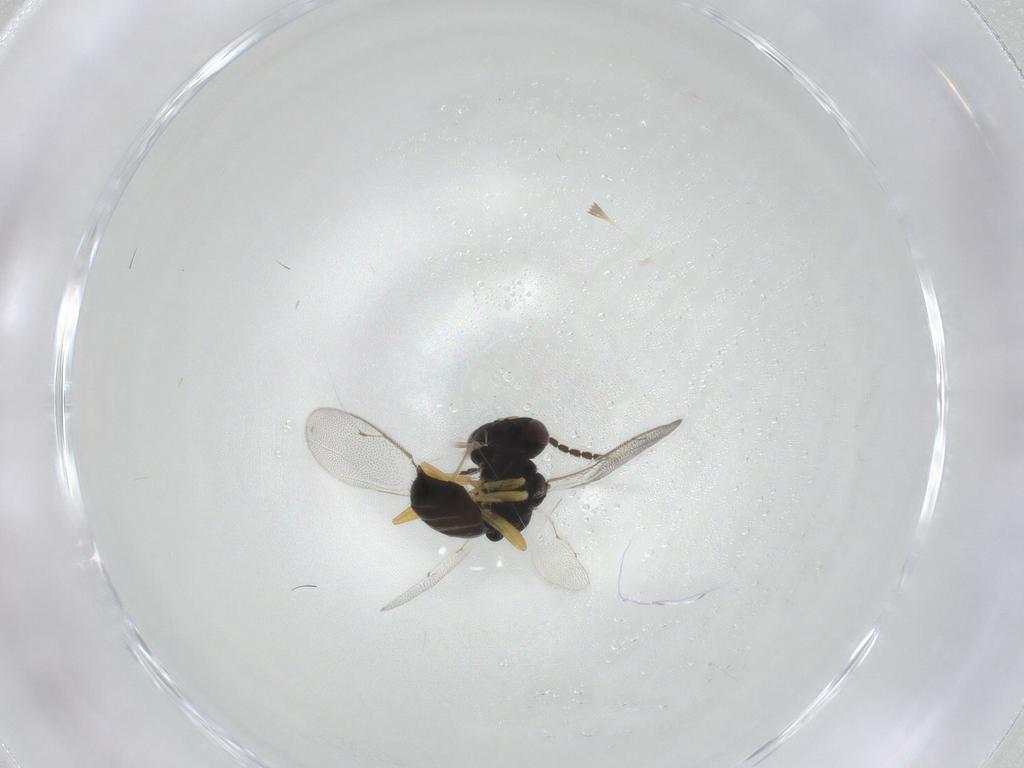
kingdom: Animalia
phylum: Arthropoda
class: Insecta
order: Hymenoptera
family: Pteromalidae
